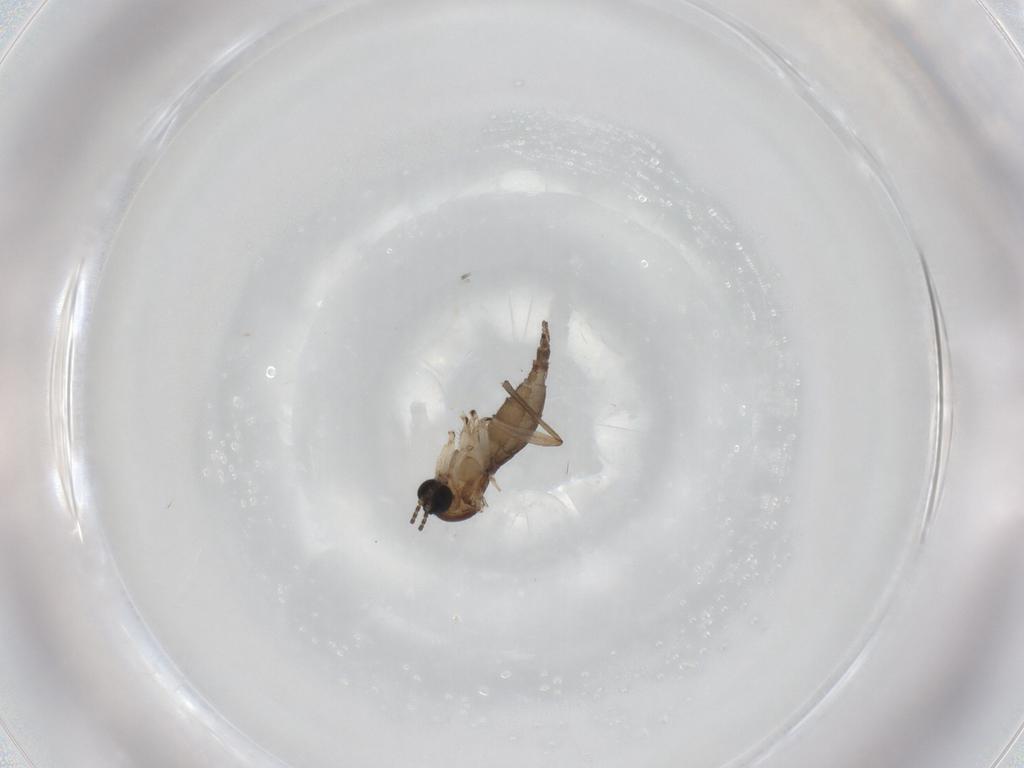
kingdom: Animalia
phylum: Arthropoda
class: Insecta
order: Diptera
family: Sciaridae
